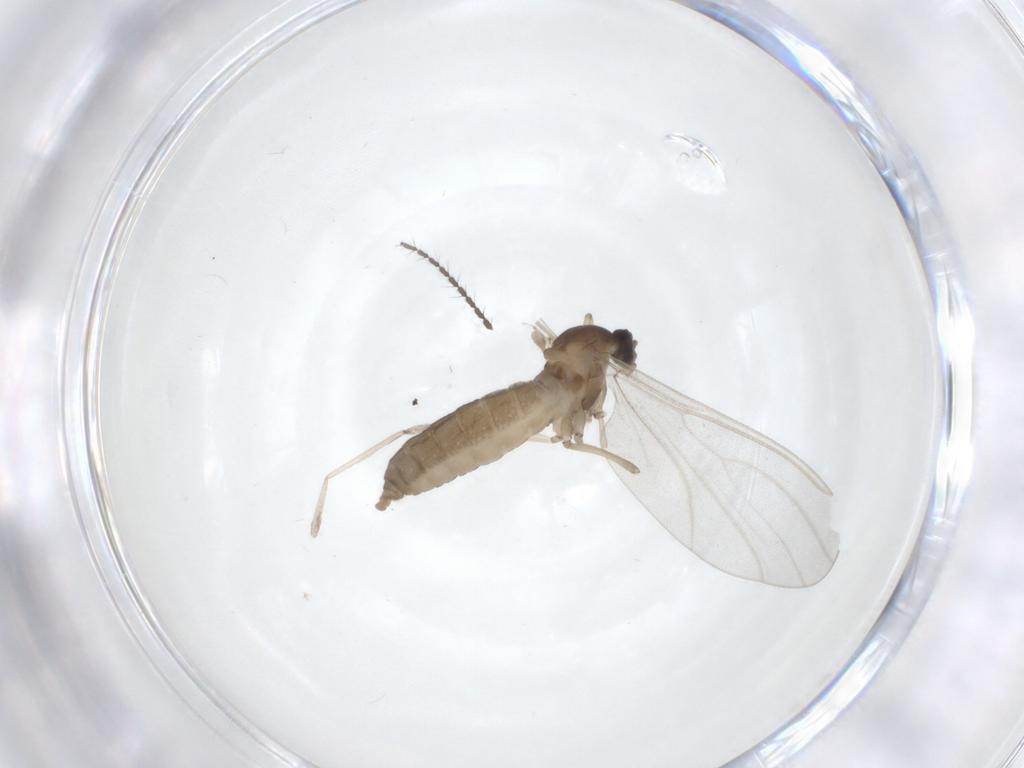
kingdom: Animalia
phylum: Arthropoda
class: Insecta
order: Diptera
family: Cecidomyiidae
